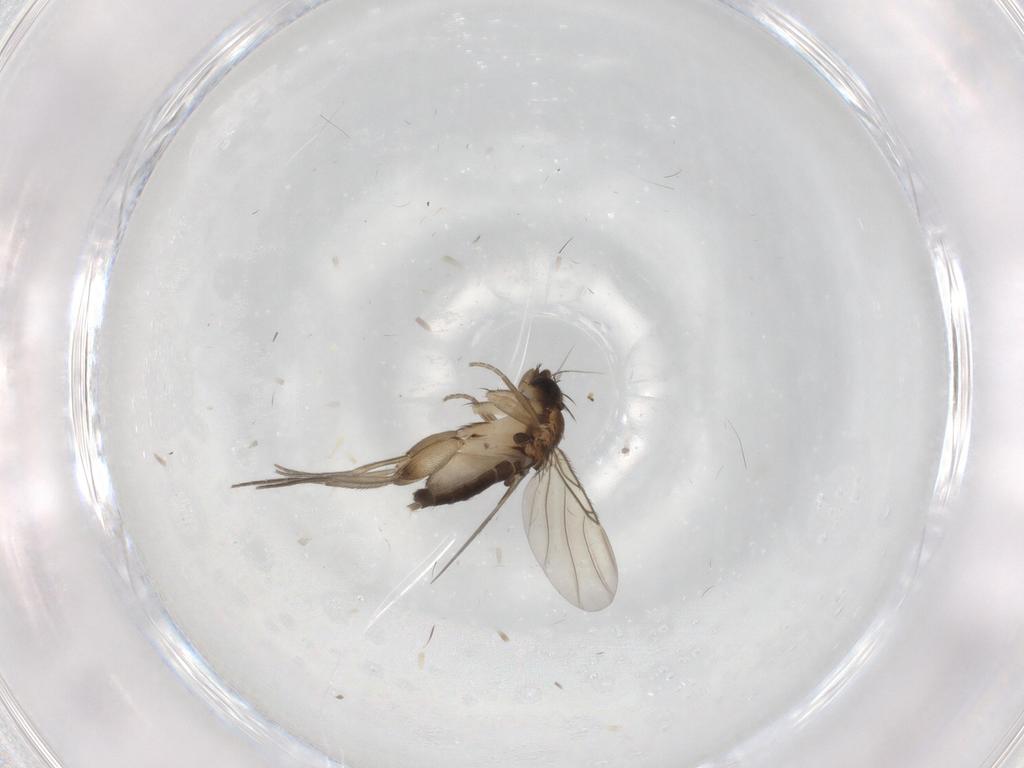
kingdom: Animalia
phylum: Arthropoda
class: Insecta
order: Diptera
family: Phoridae
